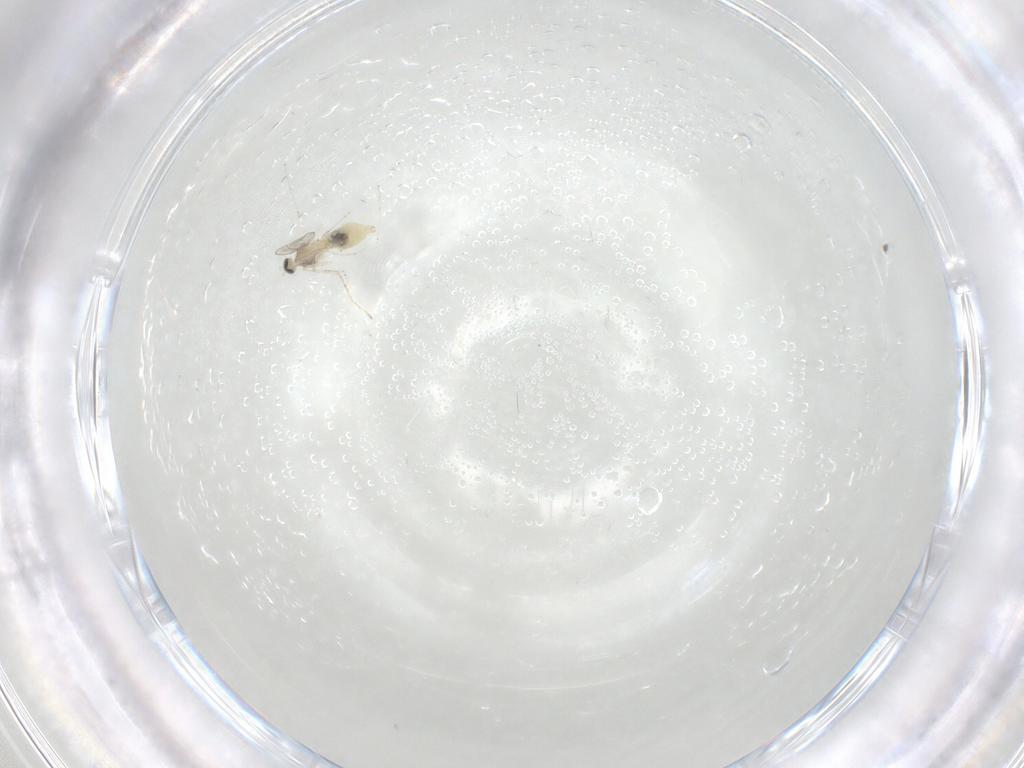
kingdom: Animalia
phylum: Arthropoda
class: Insecta
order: Diptera
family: Cecidomyiidae
